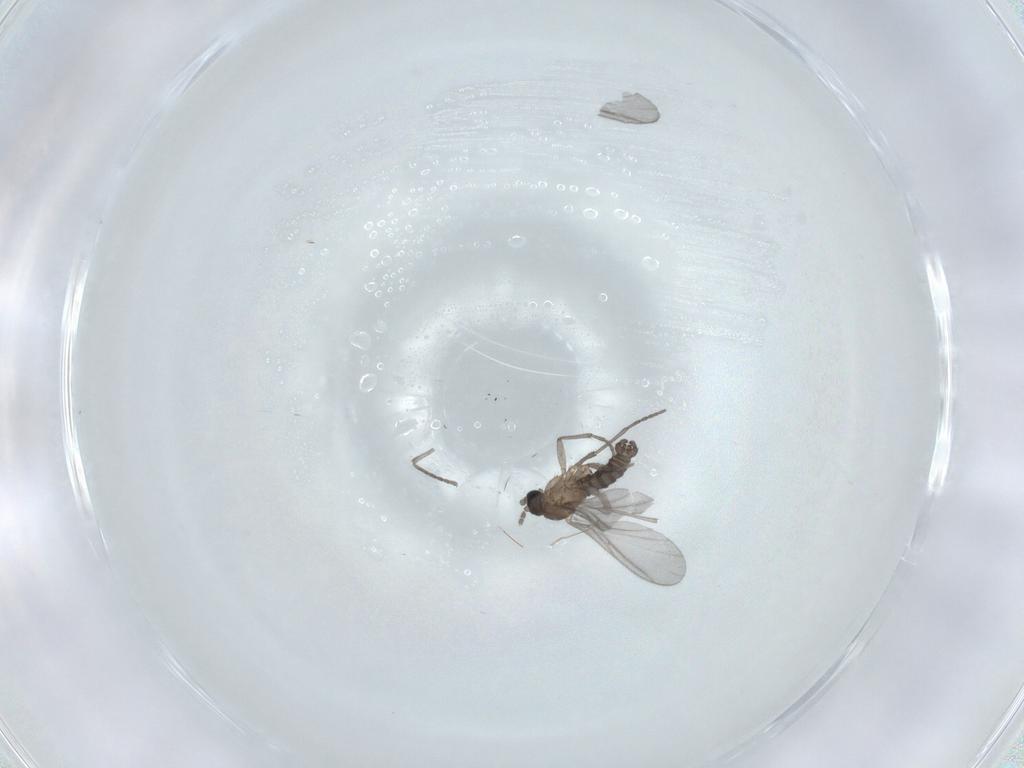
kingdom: Animalia
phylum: Arthropoda
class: Insecta
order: Diptera
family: Sciaridae
